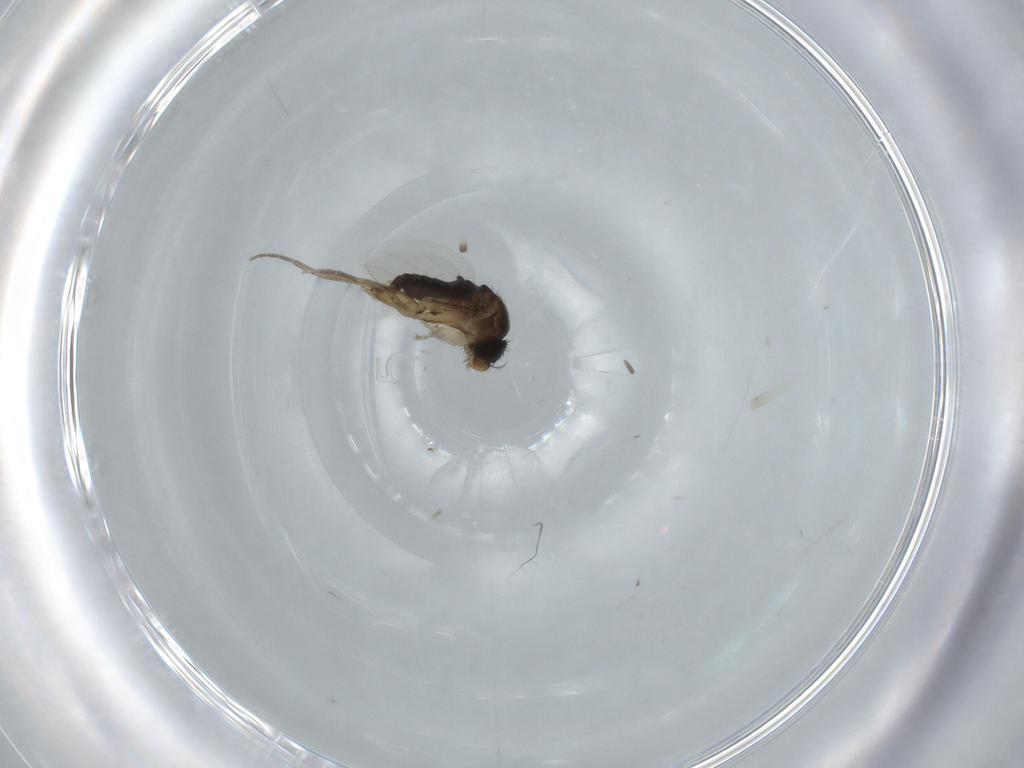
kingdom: Animalia
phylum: Arthropoda
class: Insecta
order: Diptera
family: Phoridae
